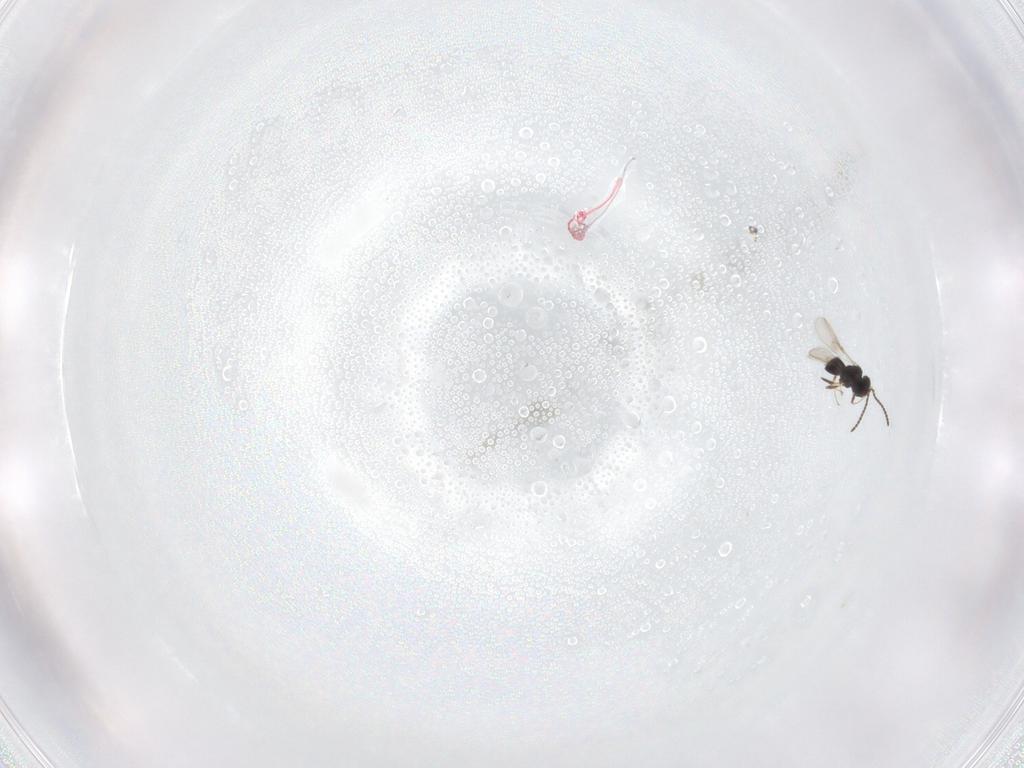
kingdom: Animalia
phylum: Arthropoda
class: Insecta
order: Hymenoptera
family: Scelionidae
